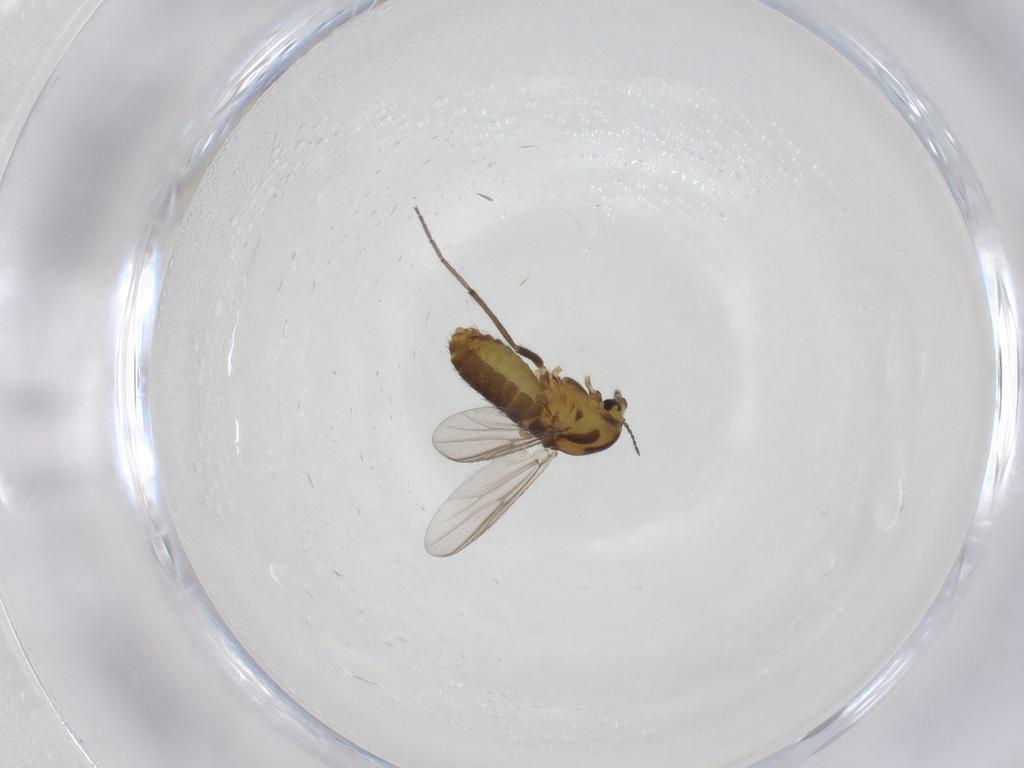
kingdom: Animalia
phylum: Arthropoda
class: Insecta
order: Diptera
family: Chironomidae
